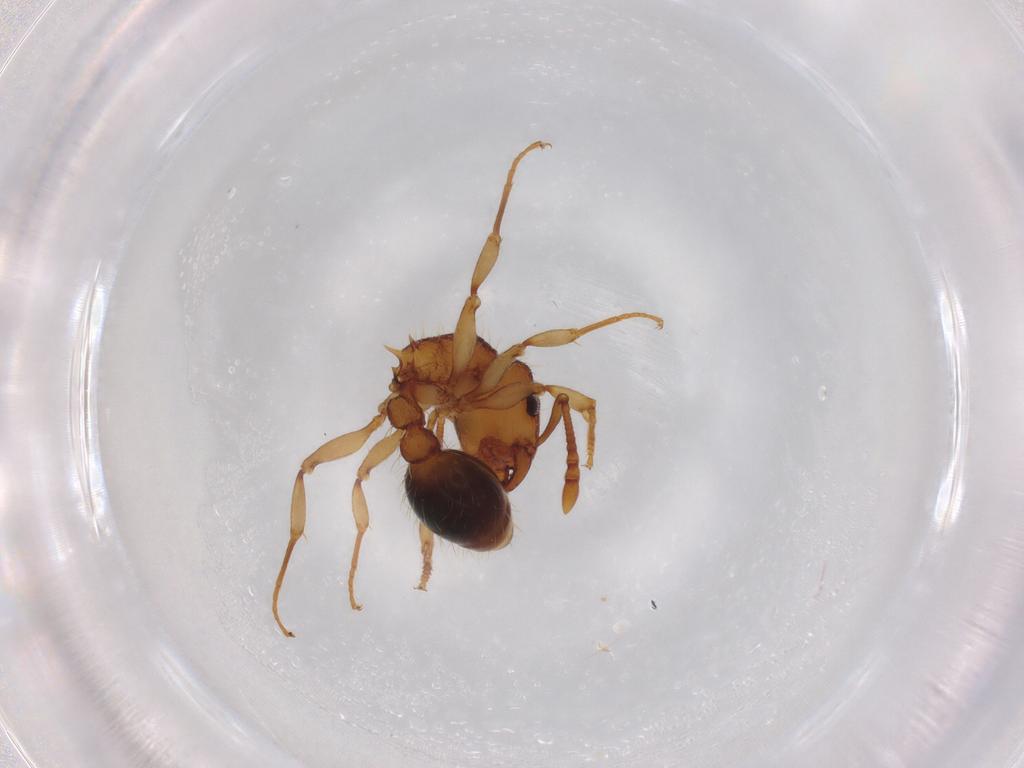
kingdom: Animalia
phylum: Arthropoda
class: Insecta
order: Hymenoptera
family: Formicidae
